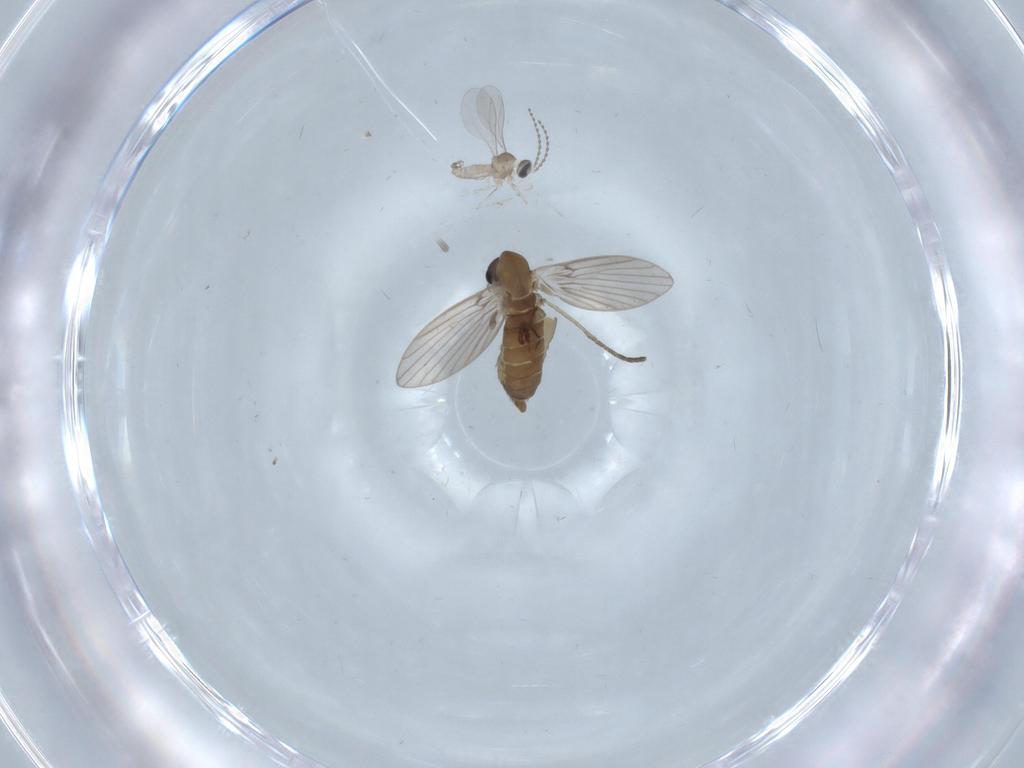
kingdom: Animalia
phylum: Arthropoda
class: Insecta
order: Diptera
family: Psychodidae
